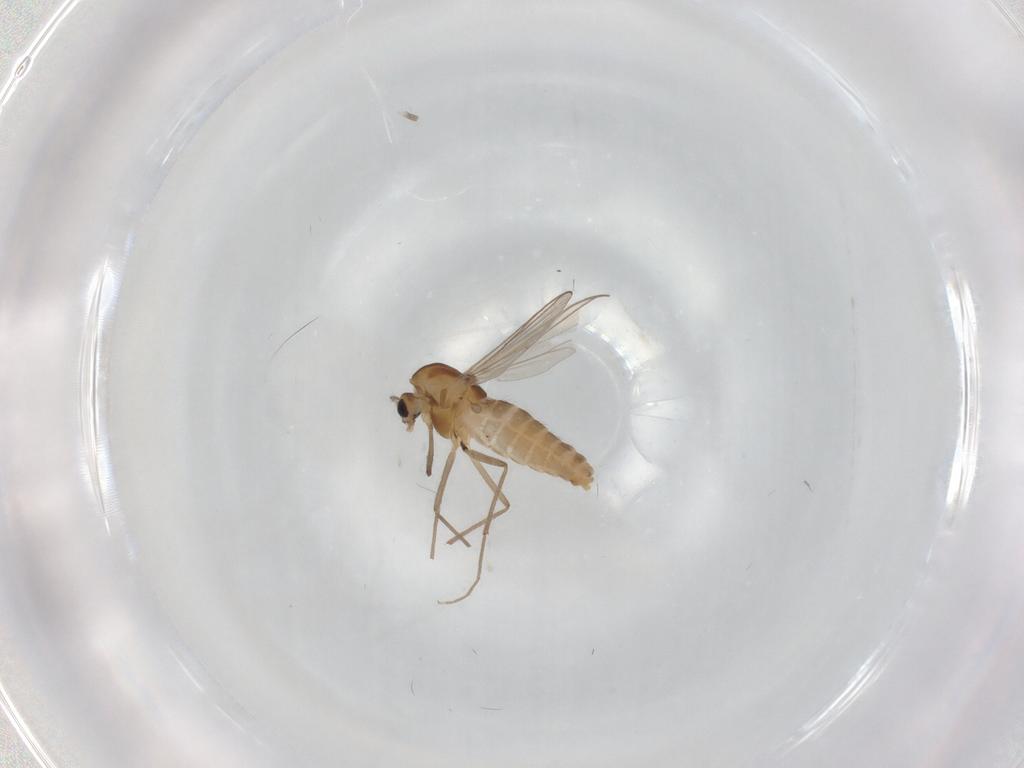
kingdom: Animalia
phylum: Arthropoda
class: Insecta
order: Diptera
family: Chironomidae
